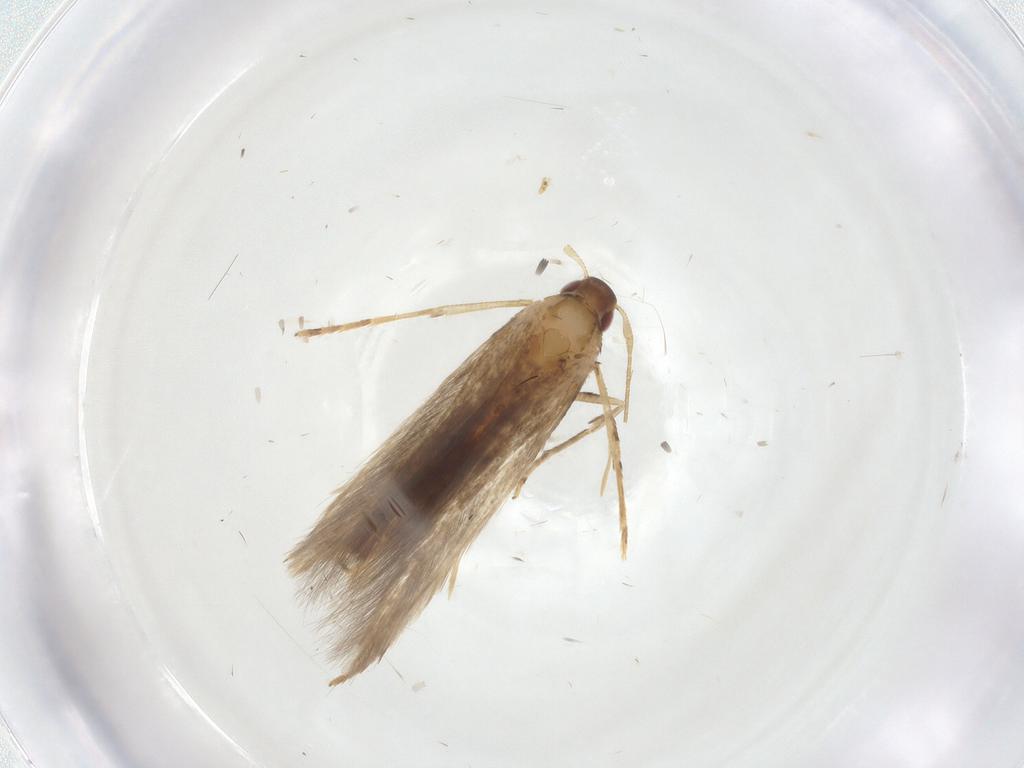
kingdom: Animalia
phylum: Arthropoda
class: Insecta
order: Lepidoptera
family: Cosmopterigidae
